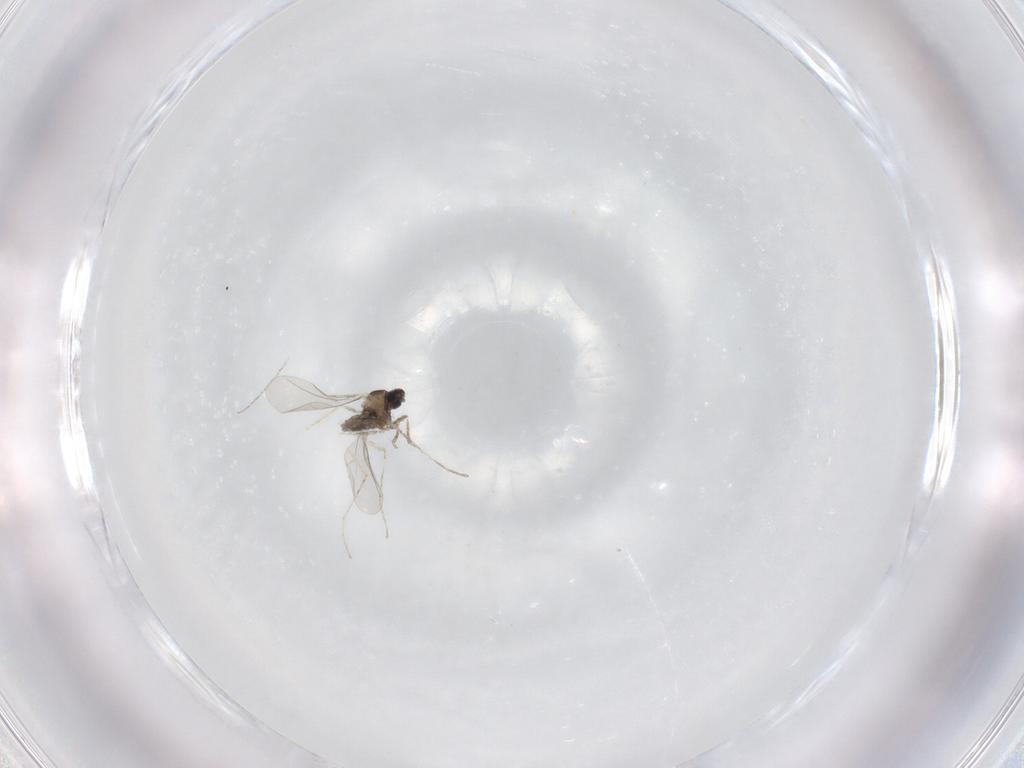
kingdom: Animalia
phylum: Arthropoda
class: Insecta
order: Diptera
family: Cecidomyiidae
